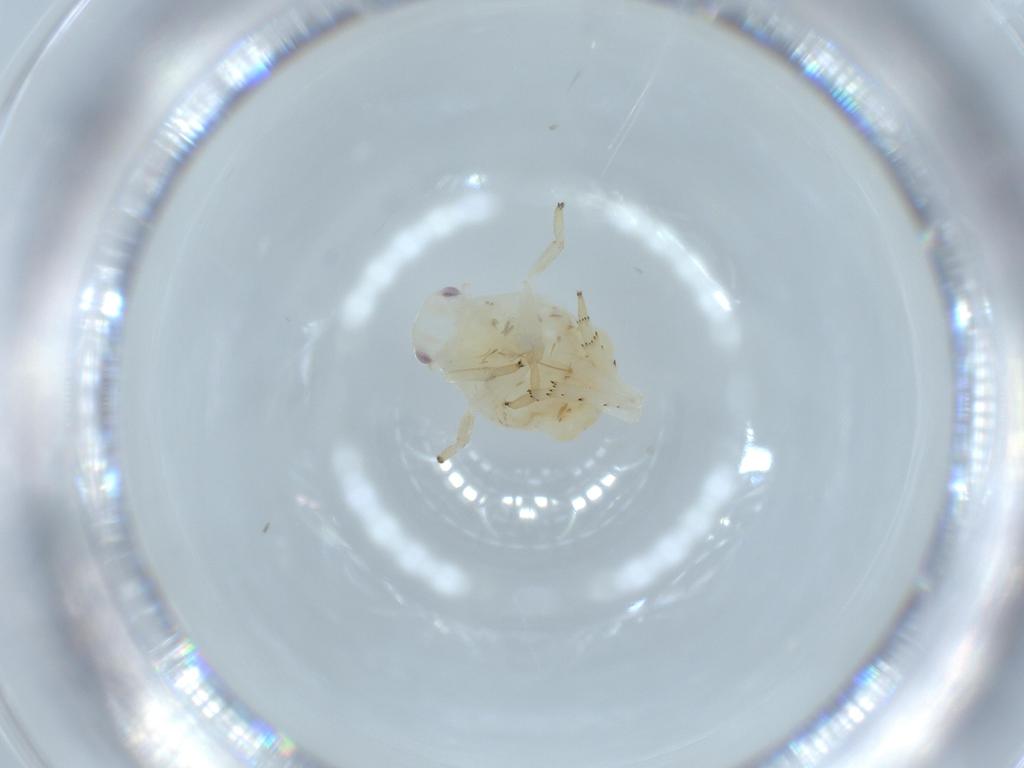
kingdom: Animalia
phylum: Arthropoda
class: Insecta
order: Hemiptera
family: Flatidae
